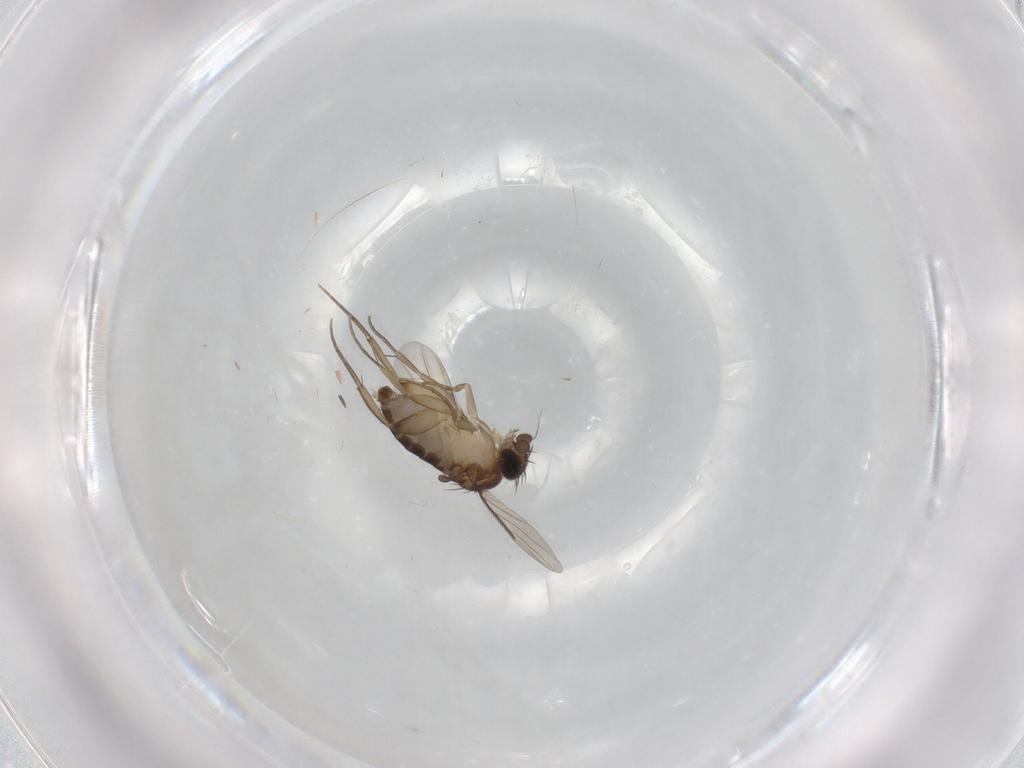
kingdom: Animalia
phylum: Arthropoda
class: Insecta
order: Diptera
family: Phoridae
